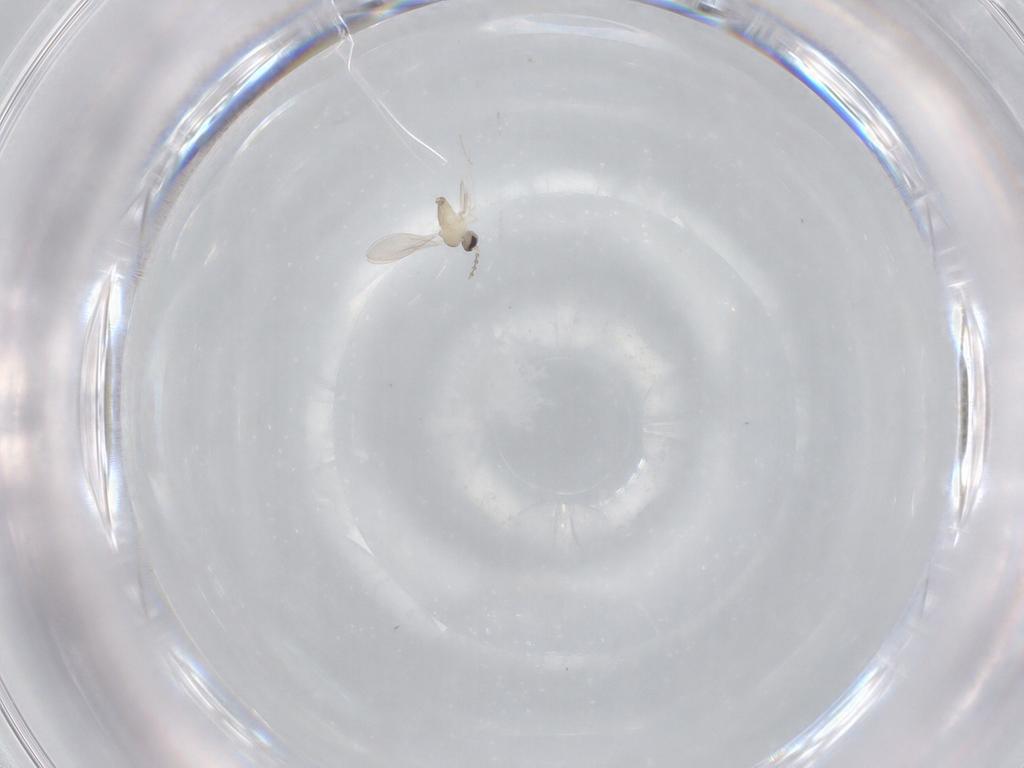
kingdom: Animalia
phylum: Arthropoda
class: Insecta
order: Diptera
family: Cecidomyiidae
